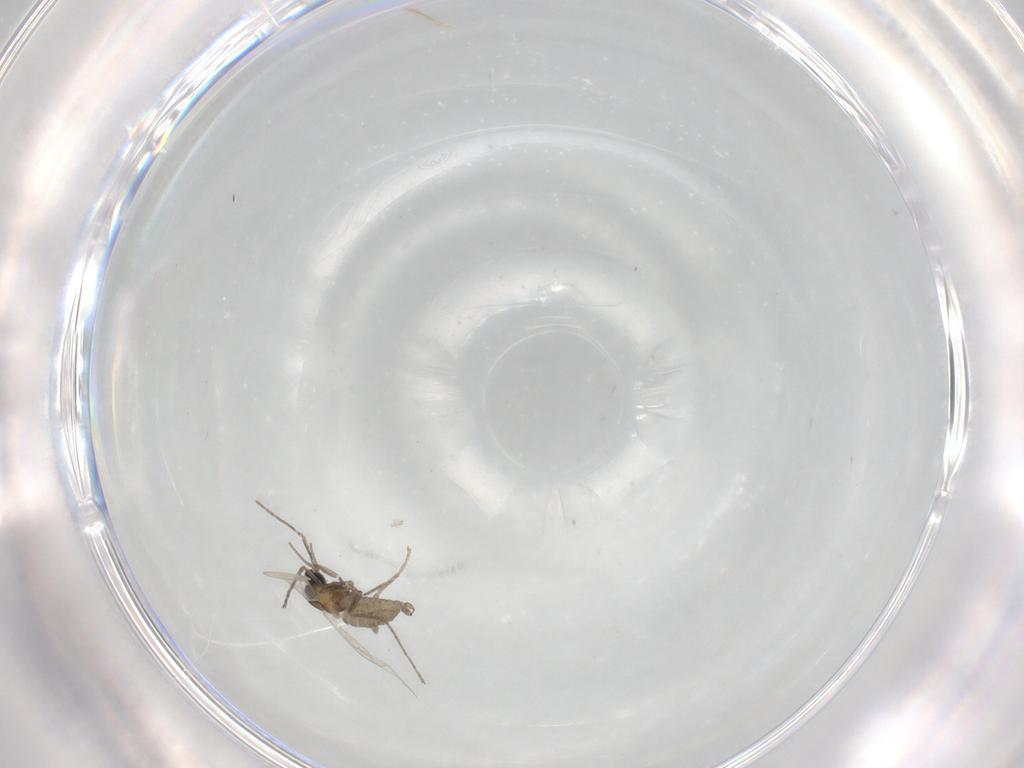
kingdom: Animalia
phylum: Arthropoda
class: Insecta
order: Diptera
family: Cecidomyiidae
